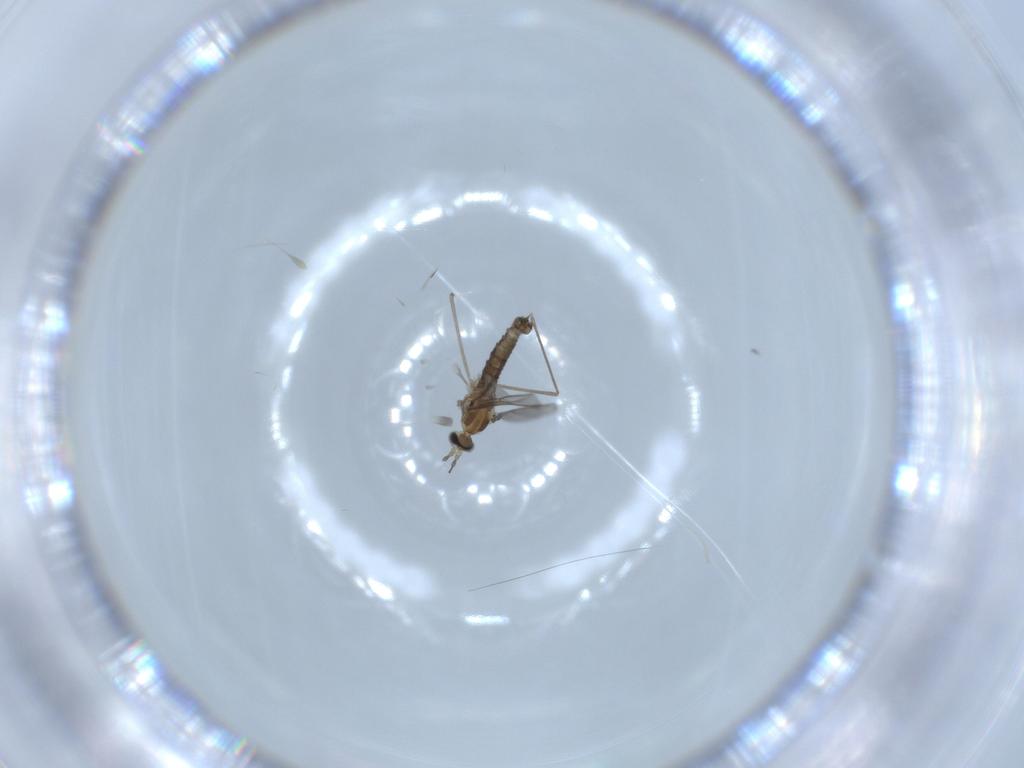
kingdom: Animalia
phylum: Arthropoda
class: Insecta
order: Diptera
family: Cecidomyiidae
